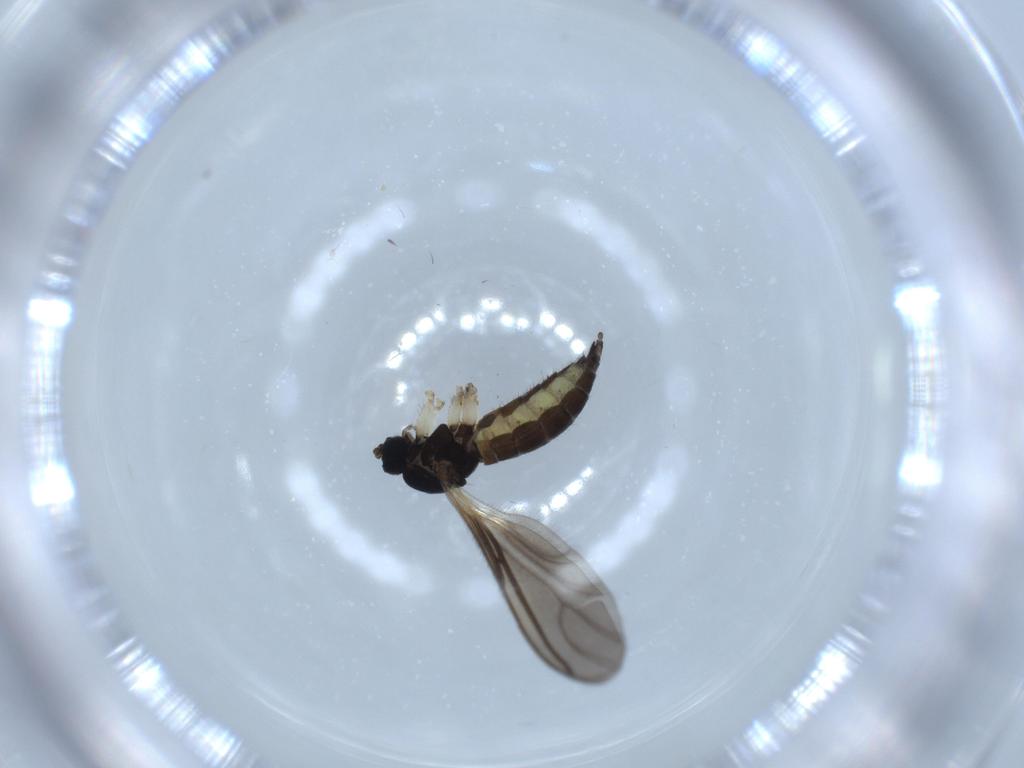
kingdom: Animalia
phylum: Arthropoda
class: Insecta
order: Diptera
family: Sciaridae
